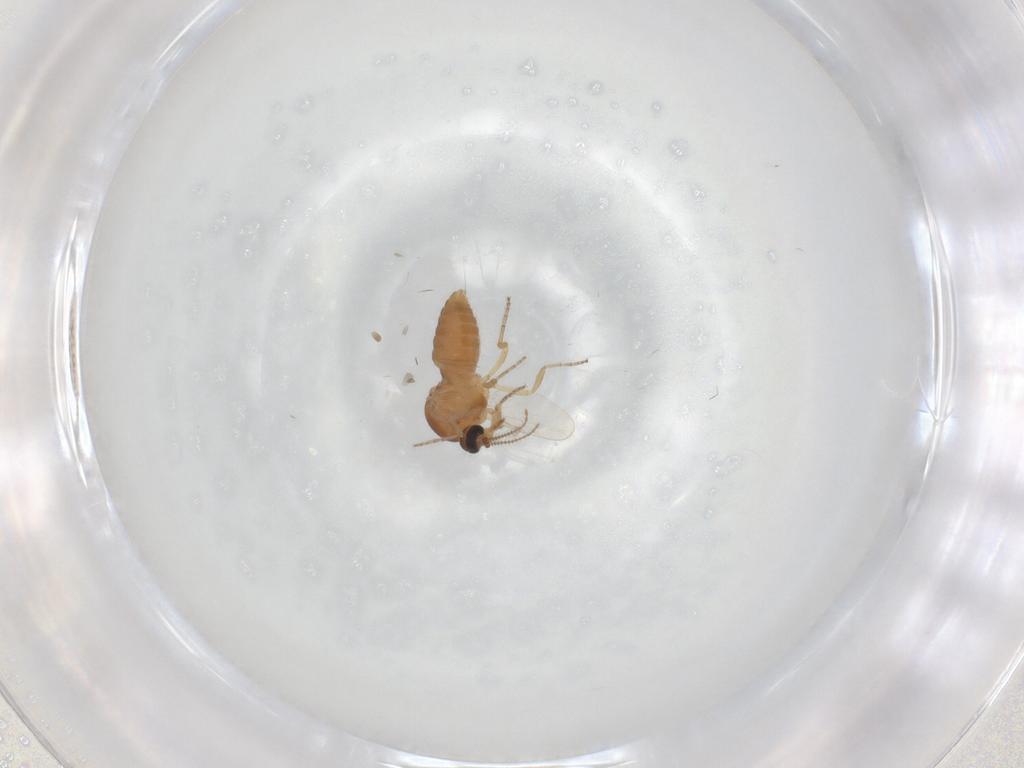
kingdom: Animalia
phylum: Arthropoda
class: Insecta
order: Diptera
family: Ceratopogonidae
